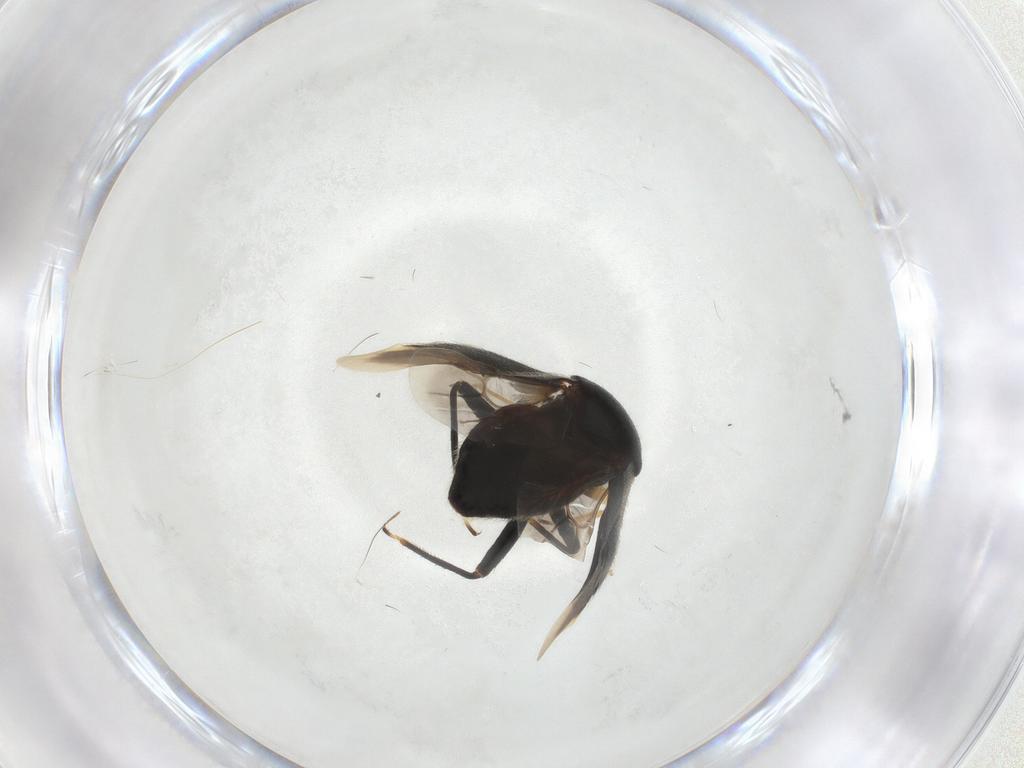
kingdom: Animalia
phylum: Arthropoda
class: Insecta
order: Hemiptera
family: Miridae
